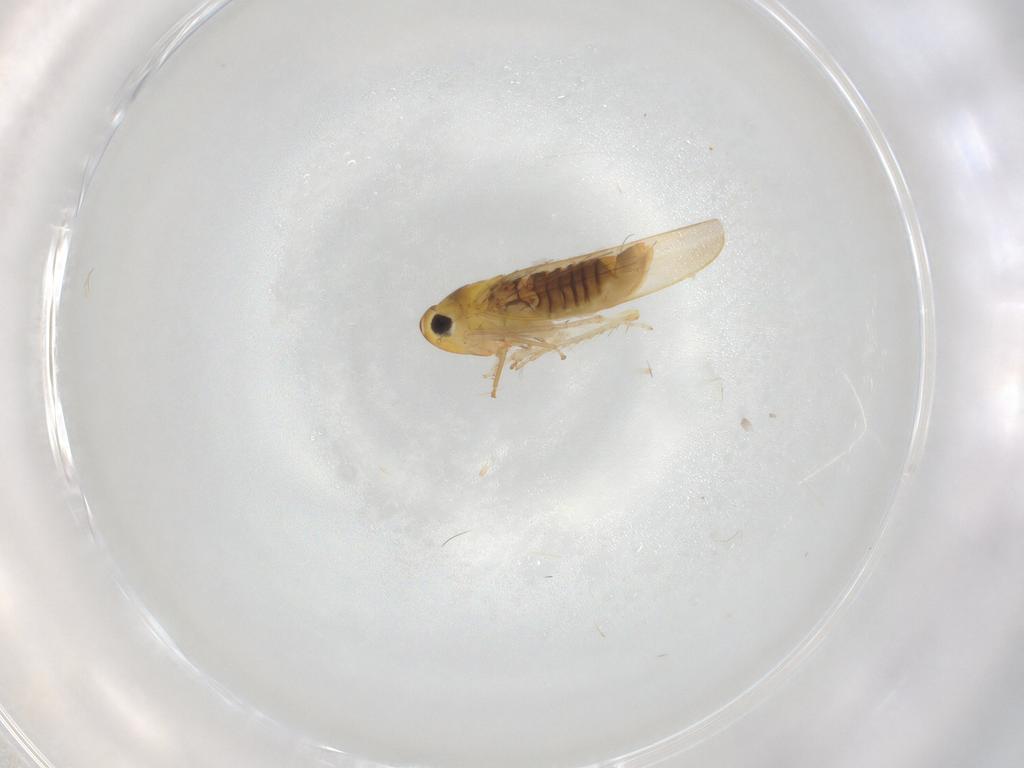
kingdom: Animalia
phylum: Arthropoda
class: Insecta
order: Hemiptera
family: Cicadellidae
